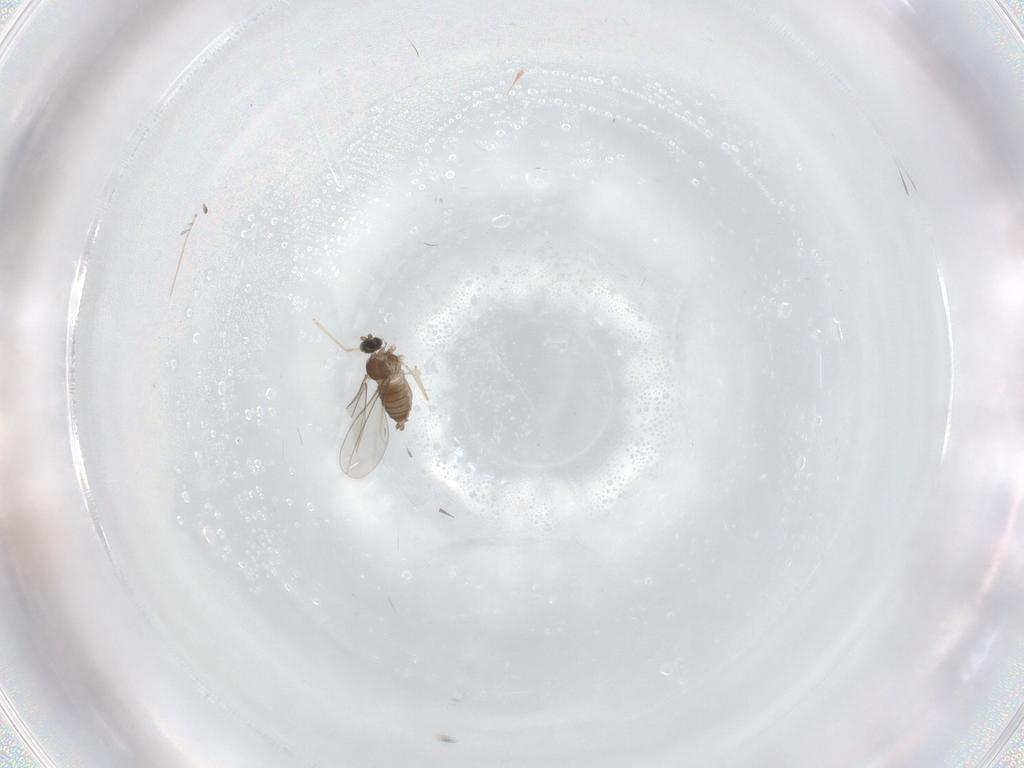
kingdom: Animalia
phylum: Arthropoda
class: Insecta
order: Diptera
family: Cecidomyiidae
